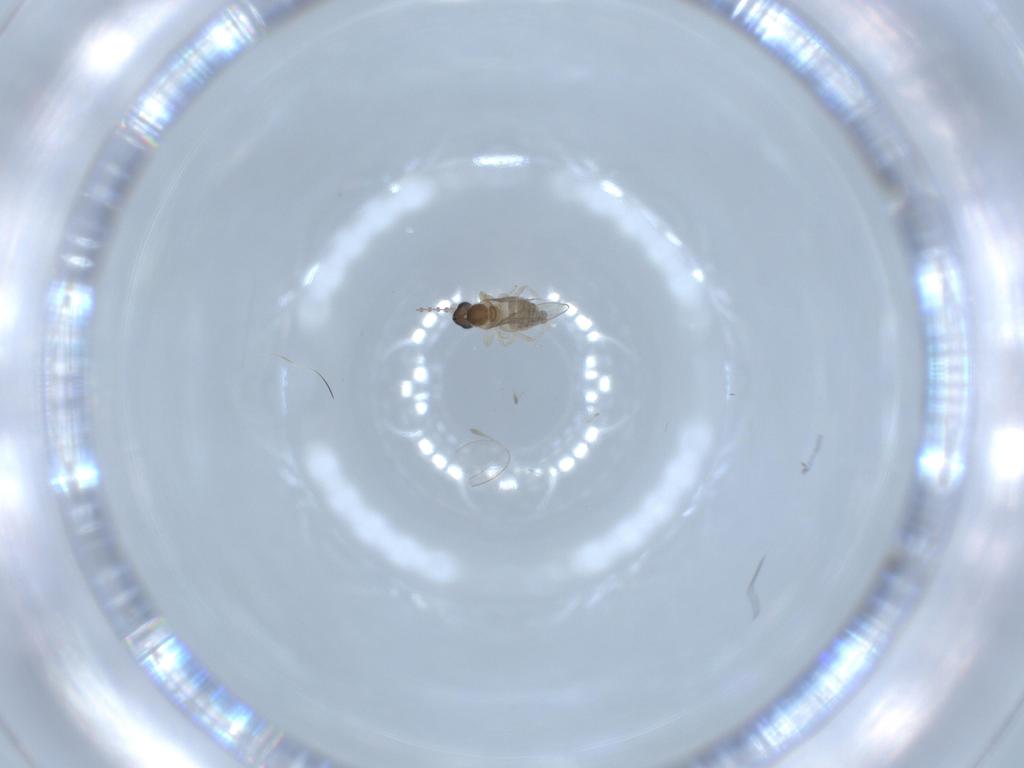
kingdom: Animalia
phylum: Arthropoda
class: Insecta
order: Diptera
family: Cecidomyiidae
